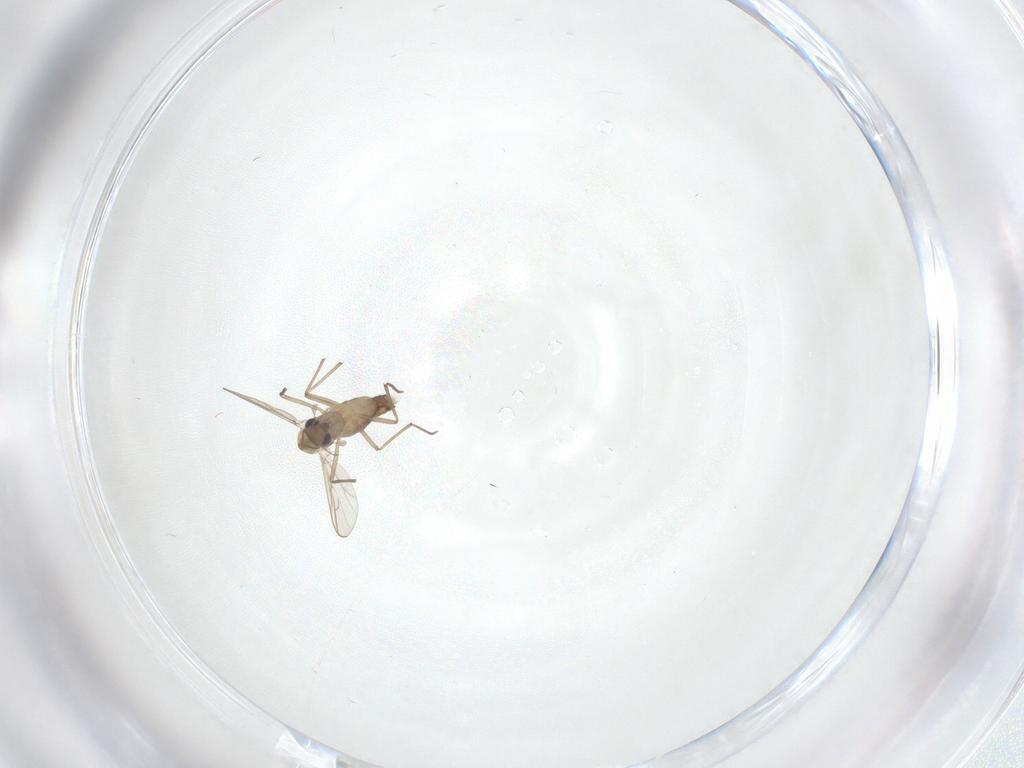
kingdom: Animalia
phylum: Arthropoda
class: Insecta
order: Diptera
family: Chironomidae
